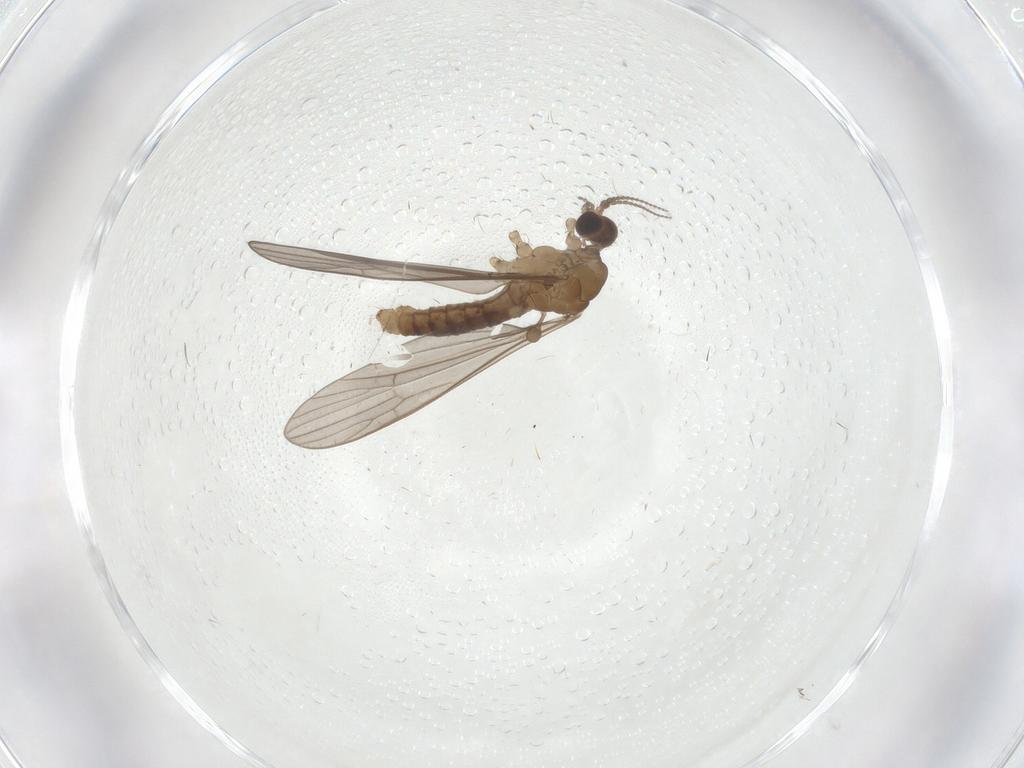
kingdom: Animalia
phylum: Arthropoda
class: Insecta
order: Diptera
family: Limoniidae
